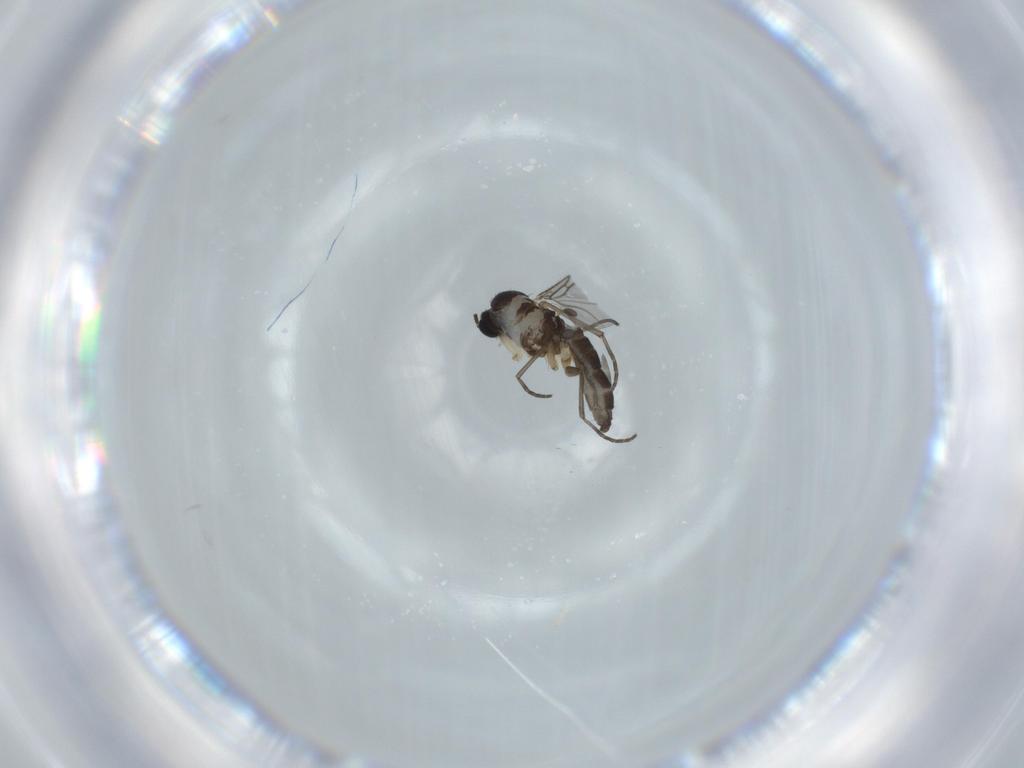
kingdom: Animalia
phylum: Arthropoda
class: Insecta
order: Diptera
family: Sciaridae
